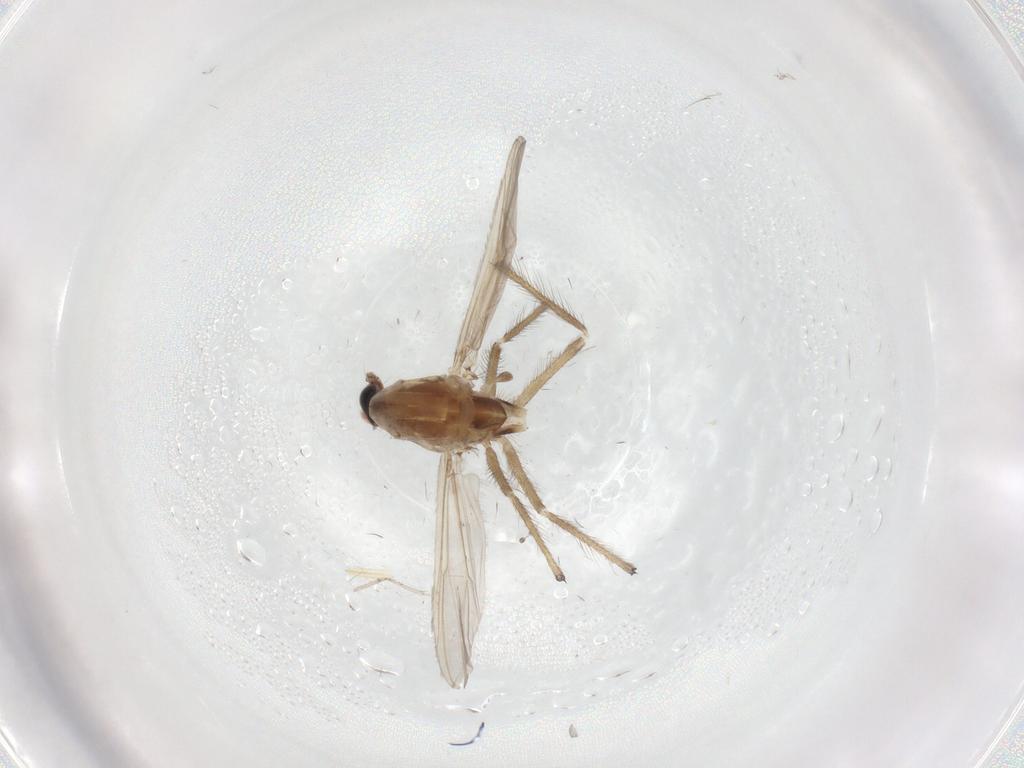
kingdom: Animalia
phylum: Arthropoda
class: Insecta
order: Diptera
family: Chironomidae
